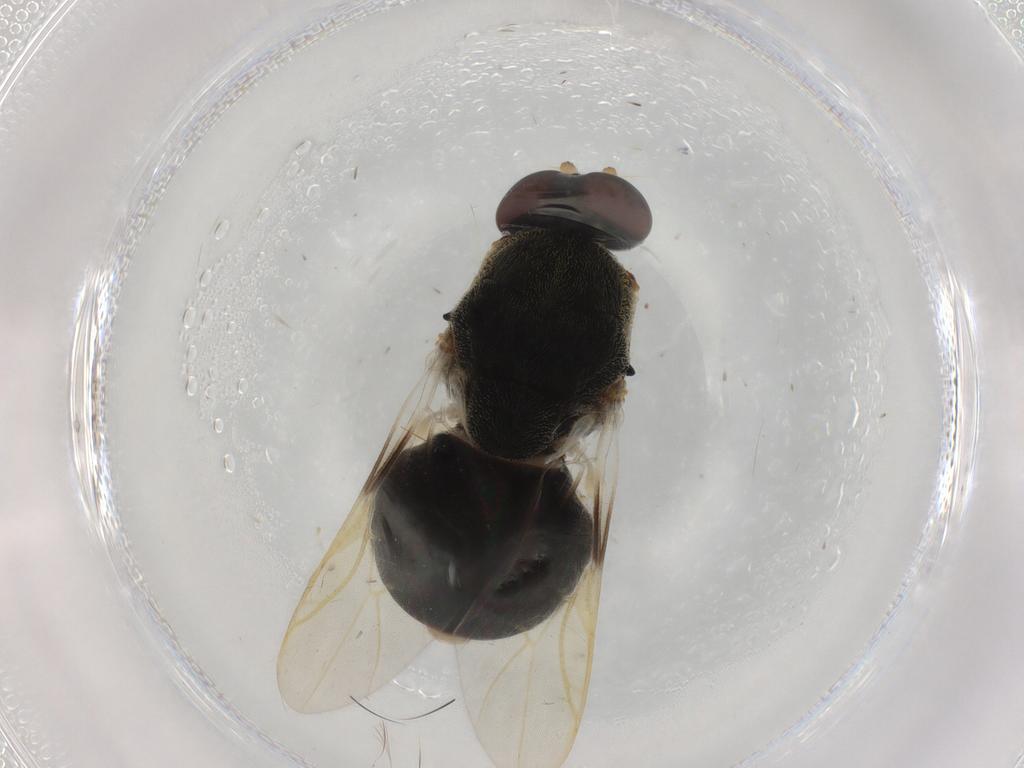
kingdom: Animalia
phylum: Arthropoda
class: Insecta
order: Diptera
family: Stratiomyidae
